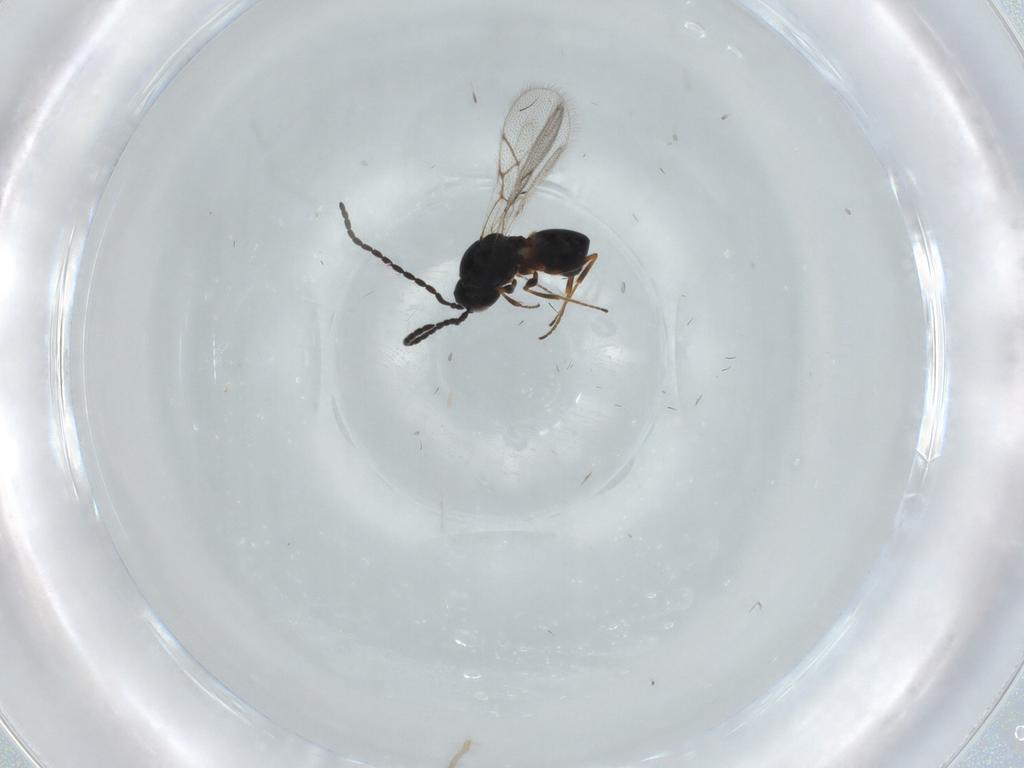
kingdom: Animalia
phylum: Arthropoda
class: Insecta
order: Hymenoptera
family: Figitidae
